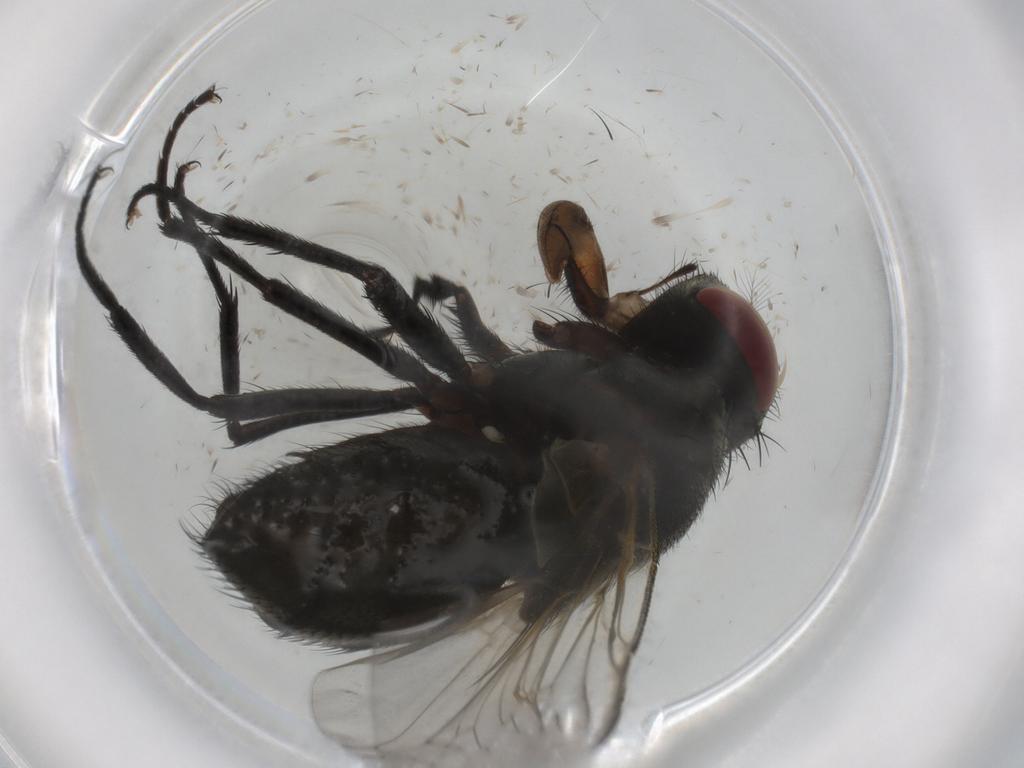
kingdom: Animalia
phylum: Arthropoda
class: Insecta
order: Diptera
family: Muscidae
